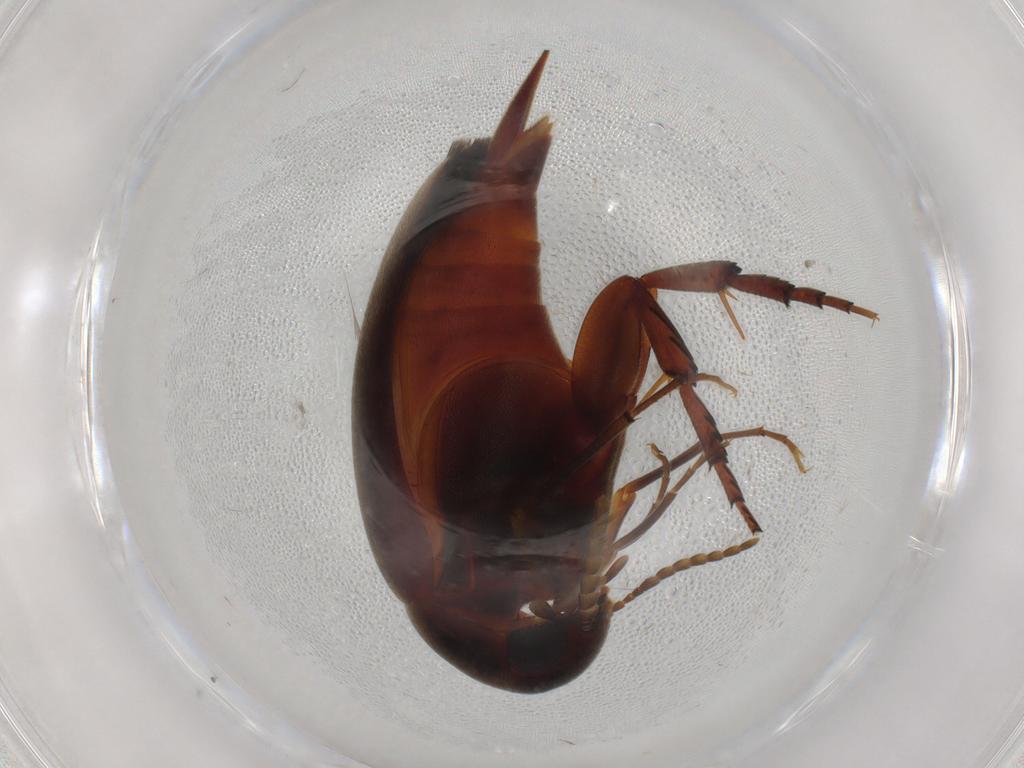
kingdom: Animalia
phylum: Arthropoda
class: Insecta
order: Coleoptera
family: Mordellidae
